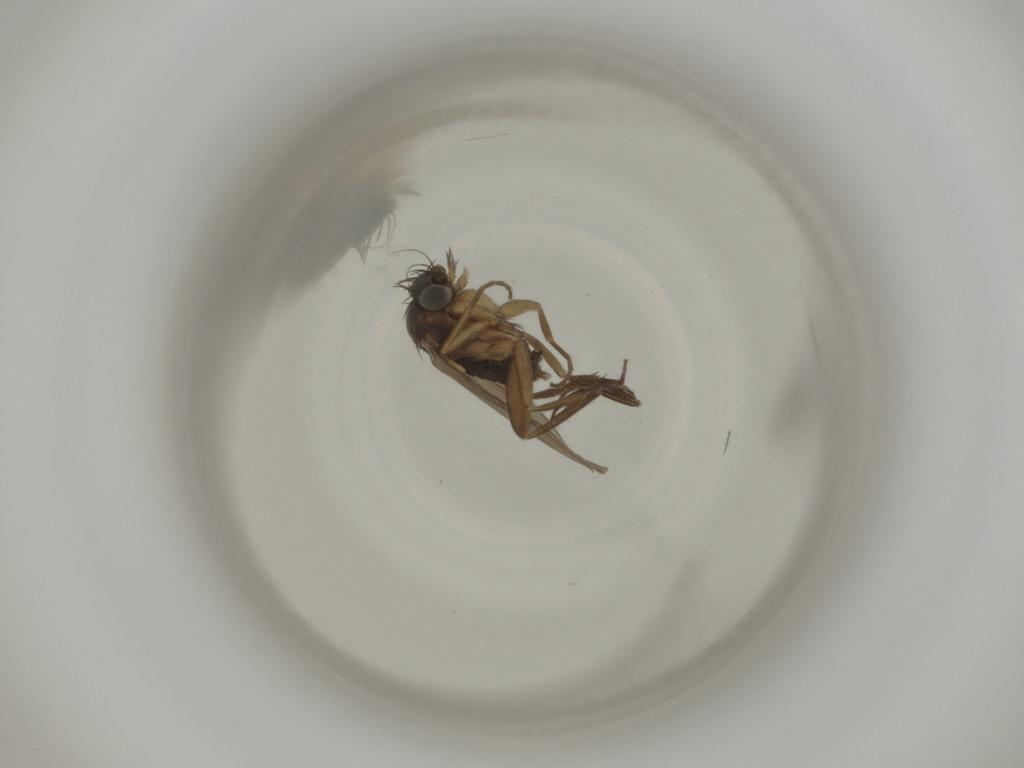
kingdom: Animalia
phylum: Arthropoda
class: Insecta
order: Diptera
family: Phoridae
